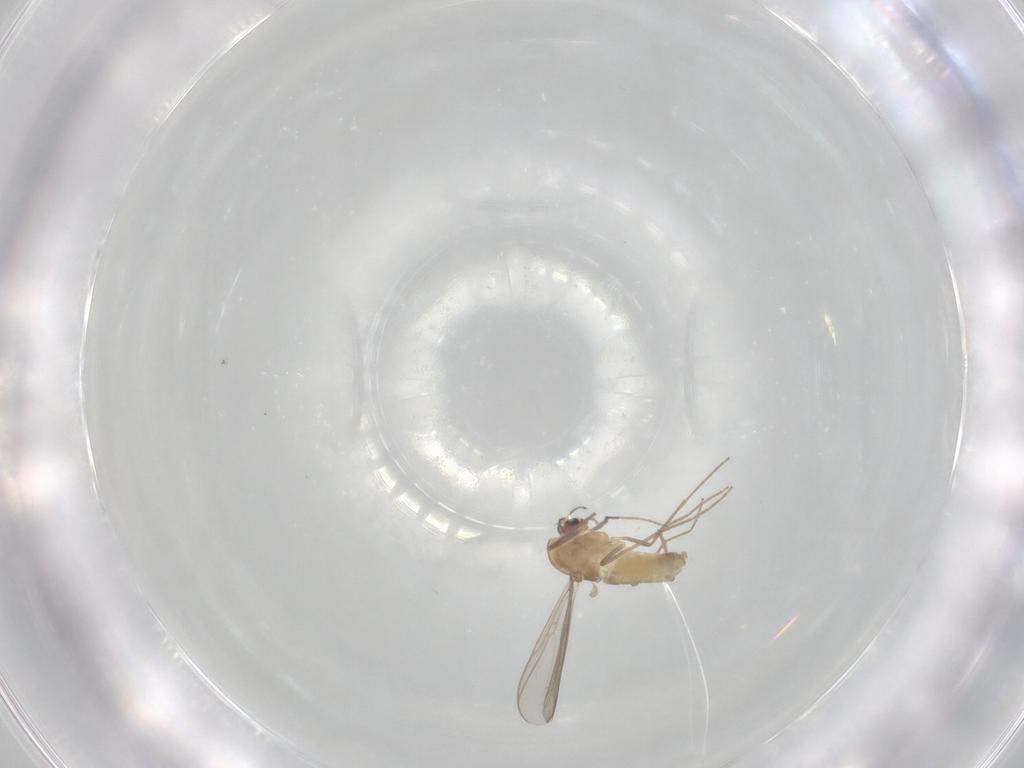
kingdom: Animalia
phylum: Arthropoda
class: Insecta
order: Diptera
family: Chironomidae
